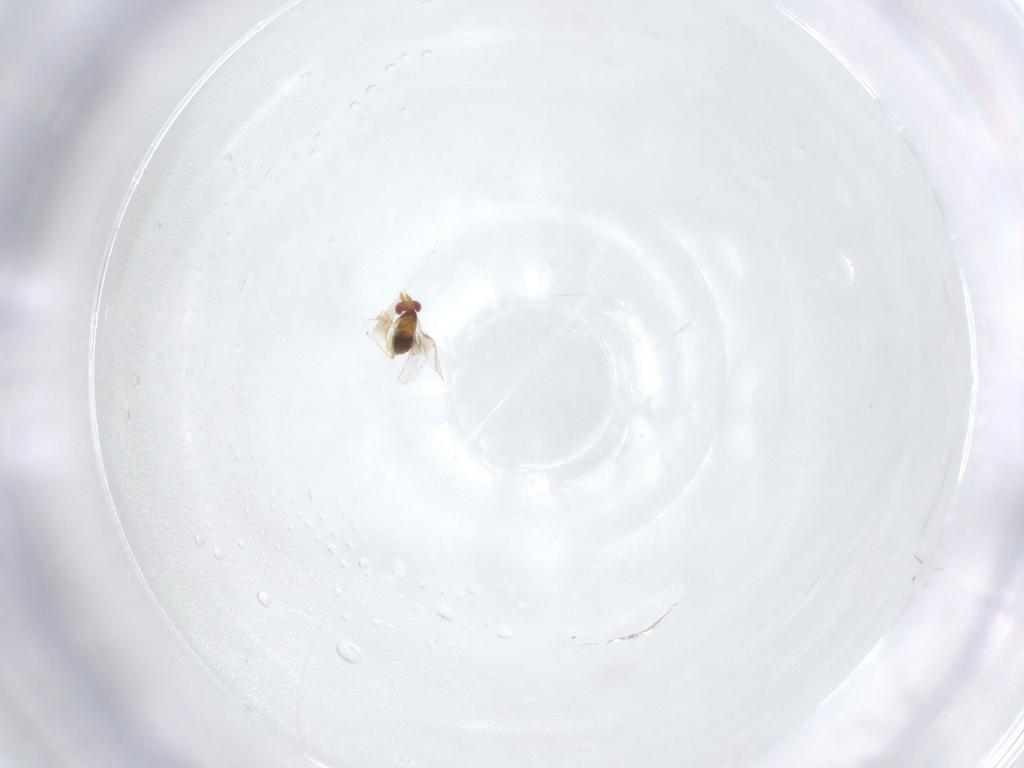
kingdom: Animalia
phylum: Arthropoda
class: Insecta
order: Hymenoptera
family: Trichogrammatidae
